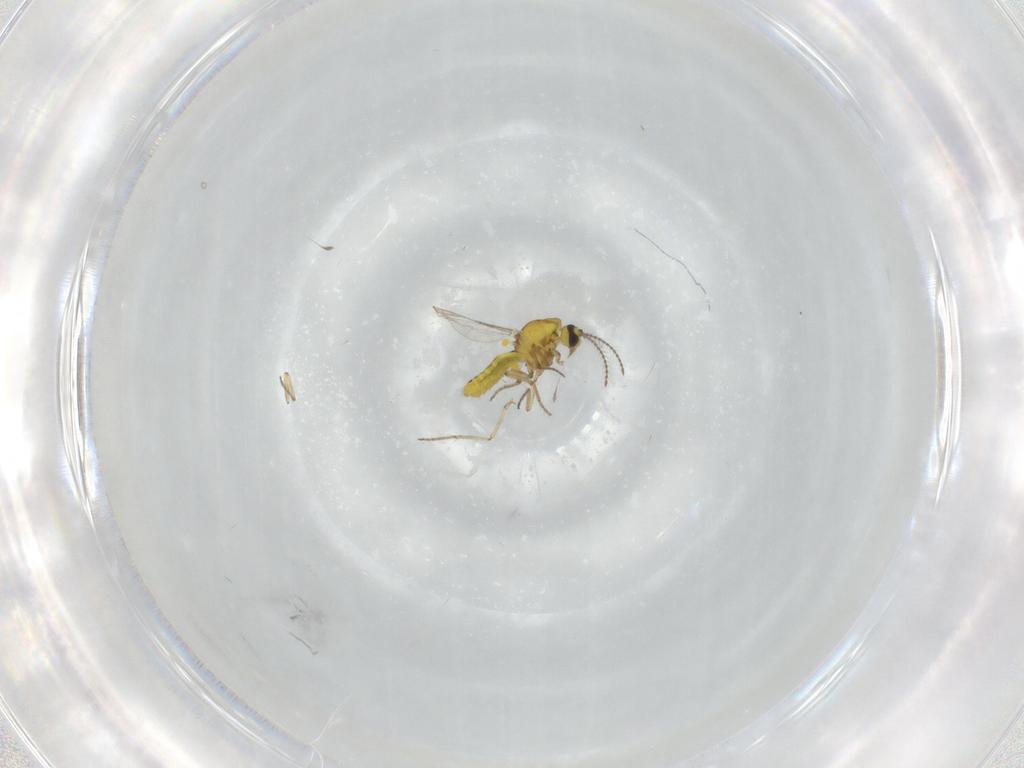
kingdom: Animalia
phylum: Arthropoda
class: Insecta
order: Diptera
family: Ceratopogonidae
